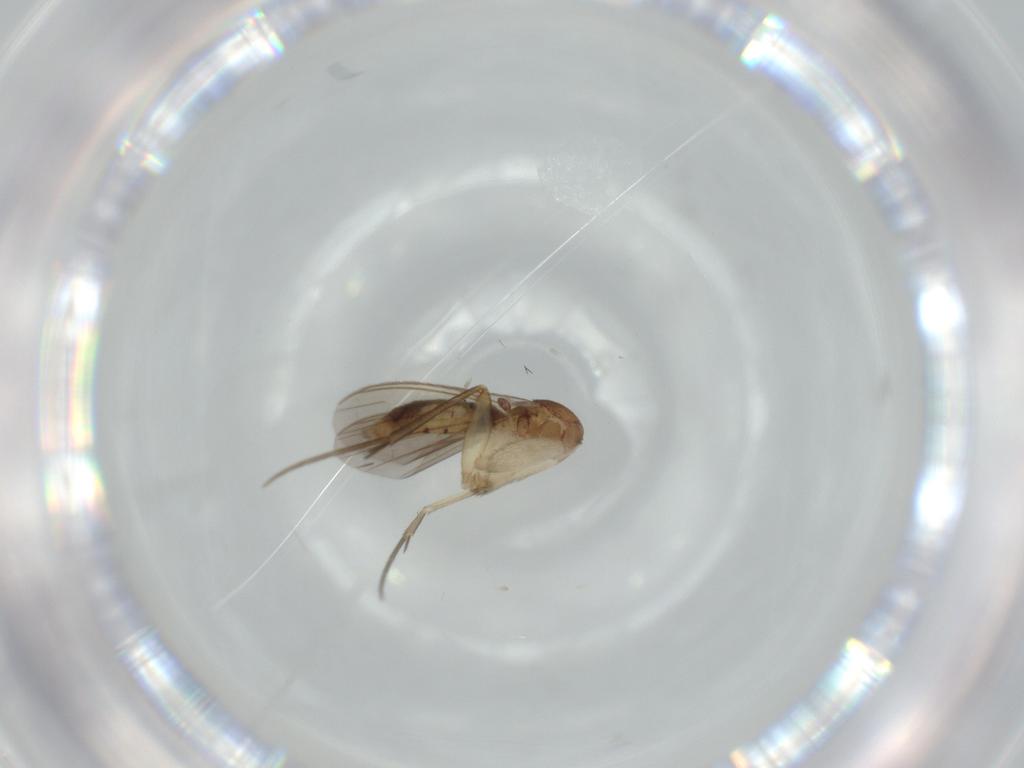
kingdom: Animalia
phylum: Arthropoda
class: Insecta
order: Diptera
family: Mycetophilidae
